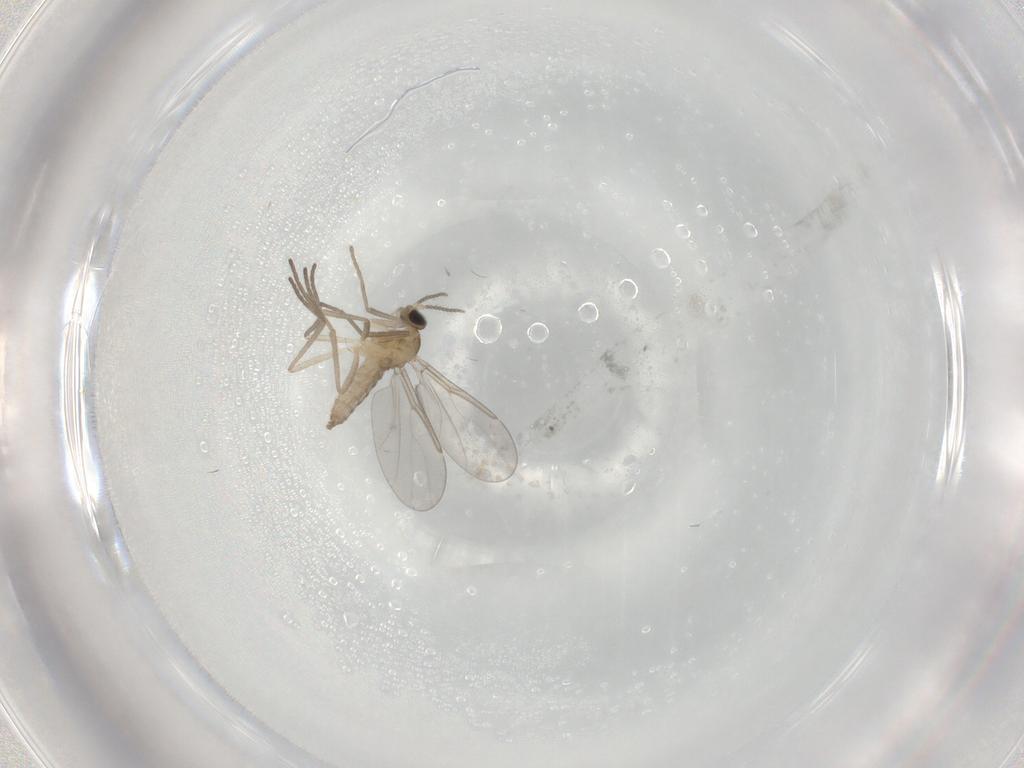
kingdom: Animalia
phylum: Arthropoda
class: Insecta
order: Diptera
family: Cecidomyiidae
